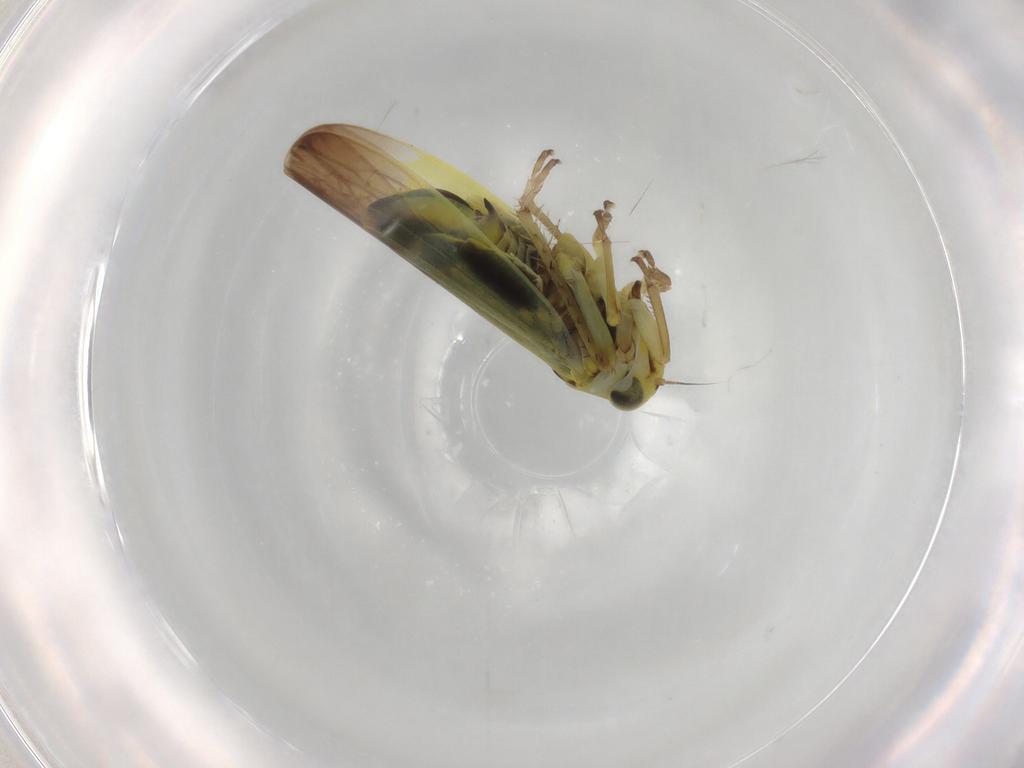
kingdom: Animalia
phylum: Arthropoda
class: Insecta
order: Hemiptera
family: Cicadellidae
